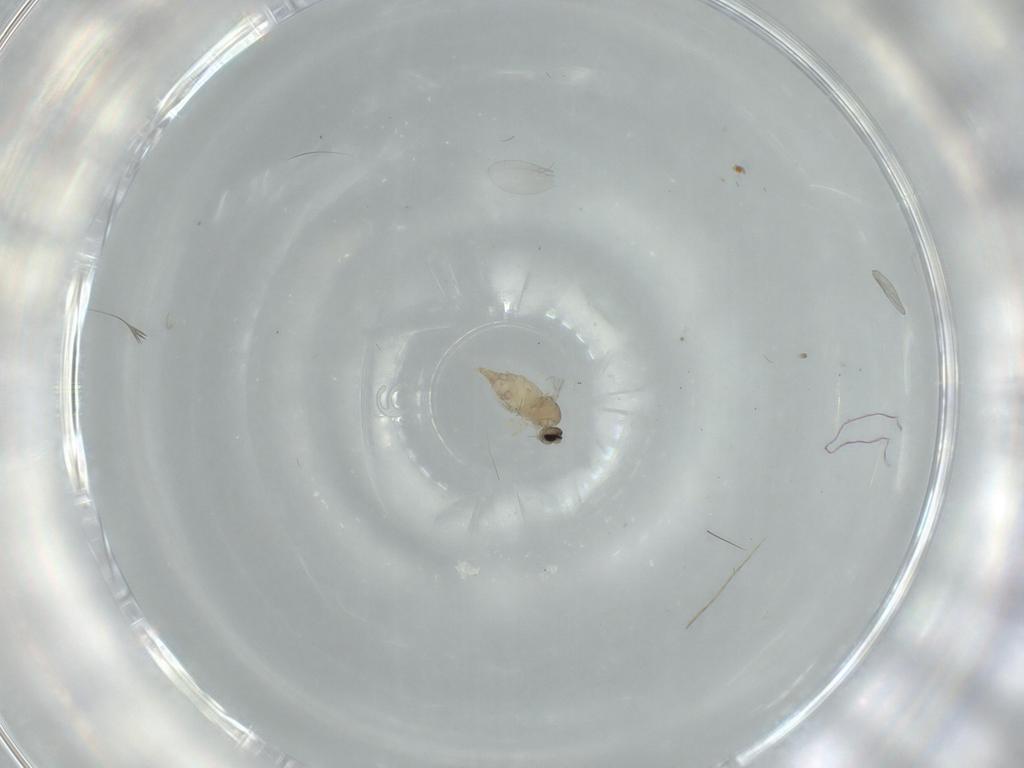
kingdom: Animalia
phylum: Arthropoda
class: Insecta
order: Diptera
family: Cecidomyiidae
